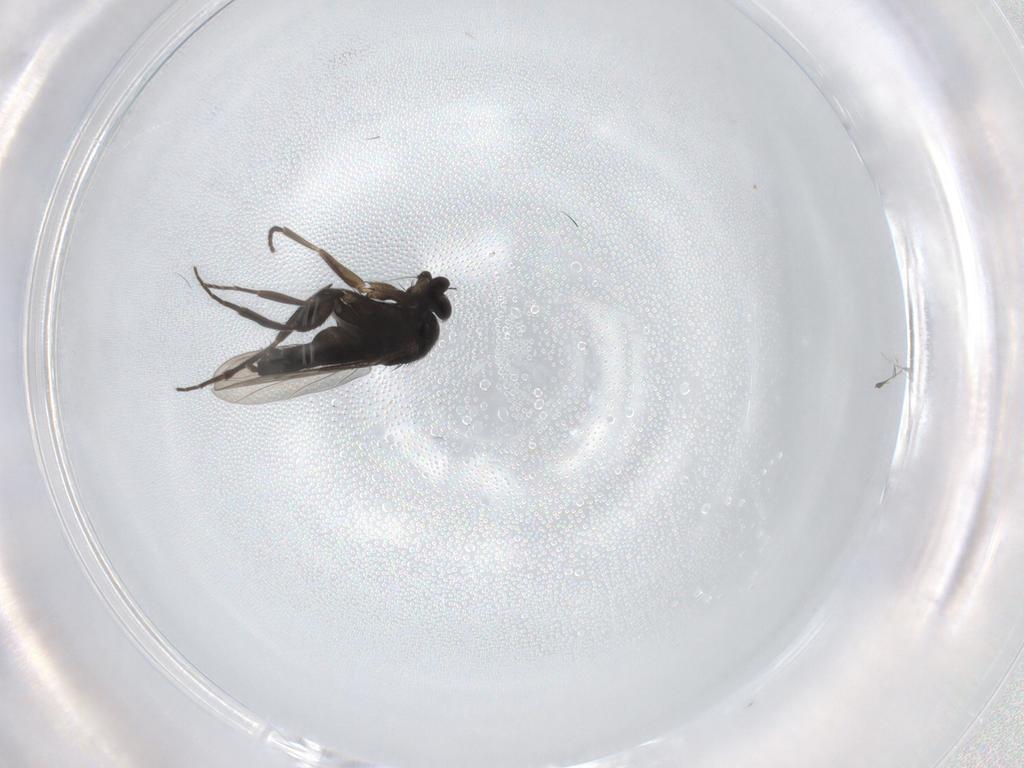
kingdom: Animalia
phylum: Arthropoda
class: Insecta
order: Diptera
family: Phoridae
